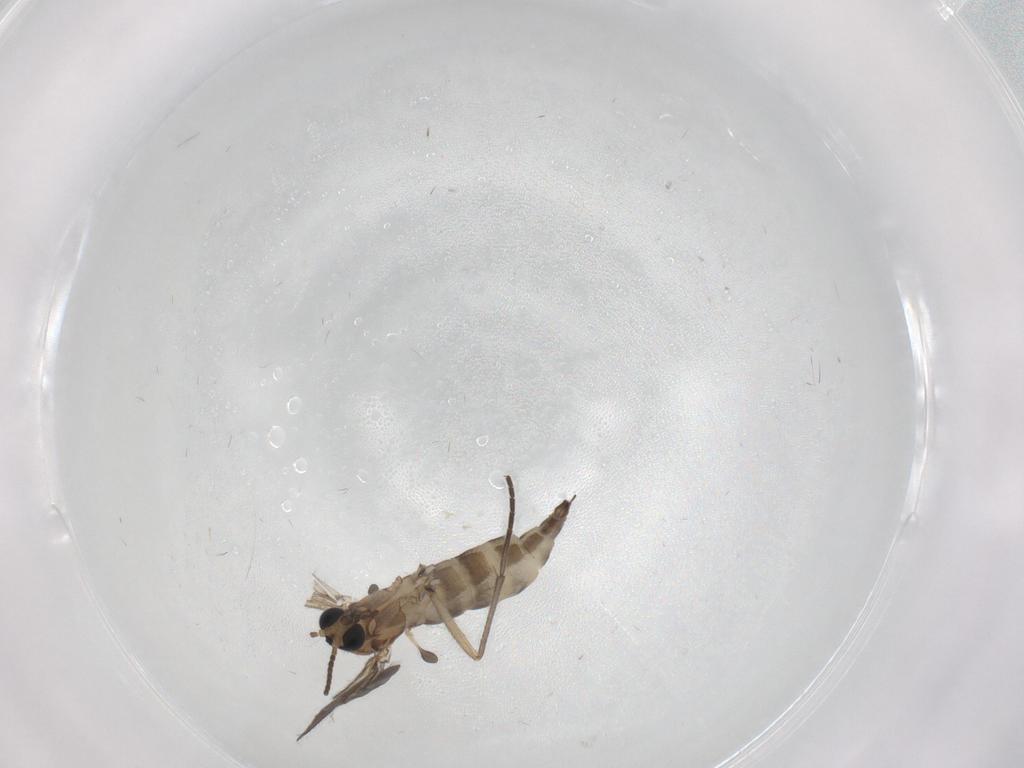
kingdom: Animalia
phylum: Arthropoda
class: Insecta
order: Diptera
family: Sciaridae
